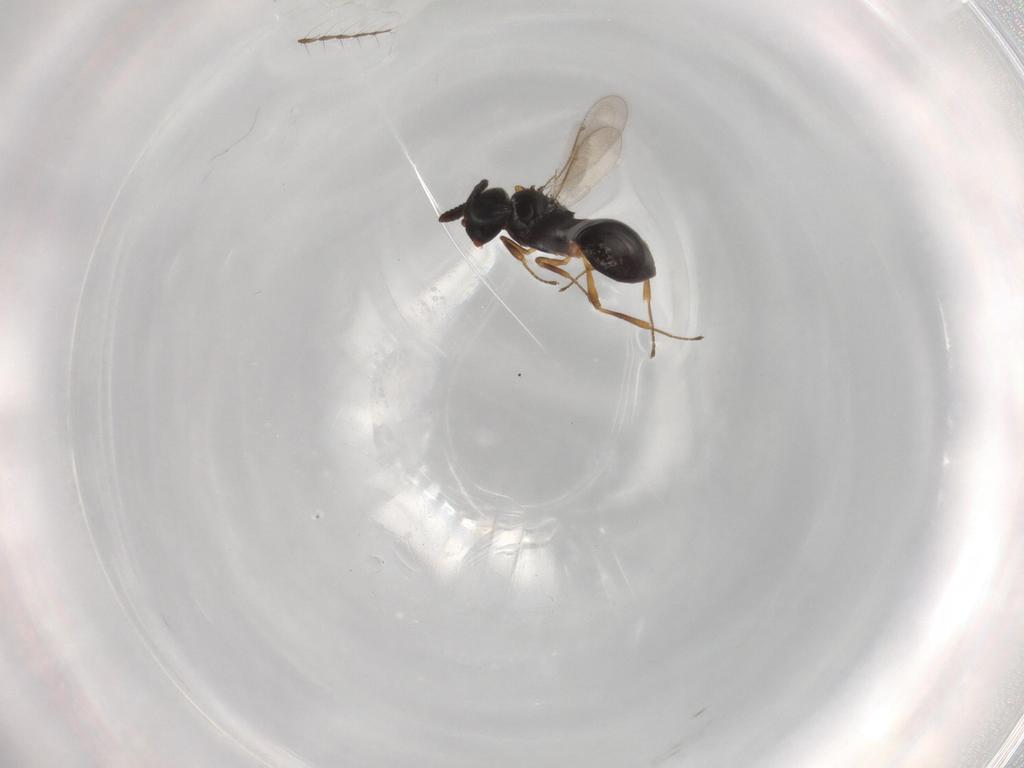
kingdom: Animalia
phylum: Arthropoda
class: Insecta
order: Hymenoptera
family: Scelionidae
